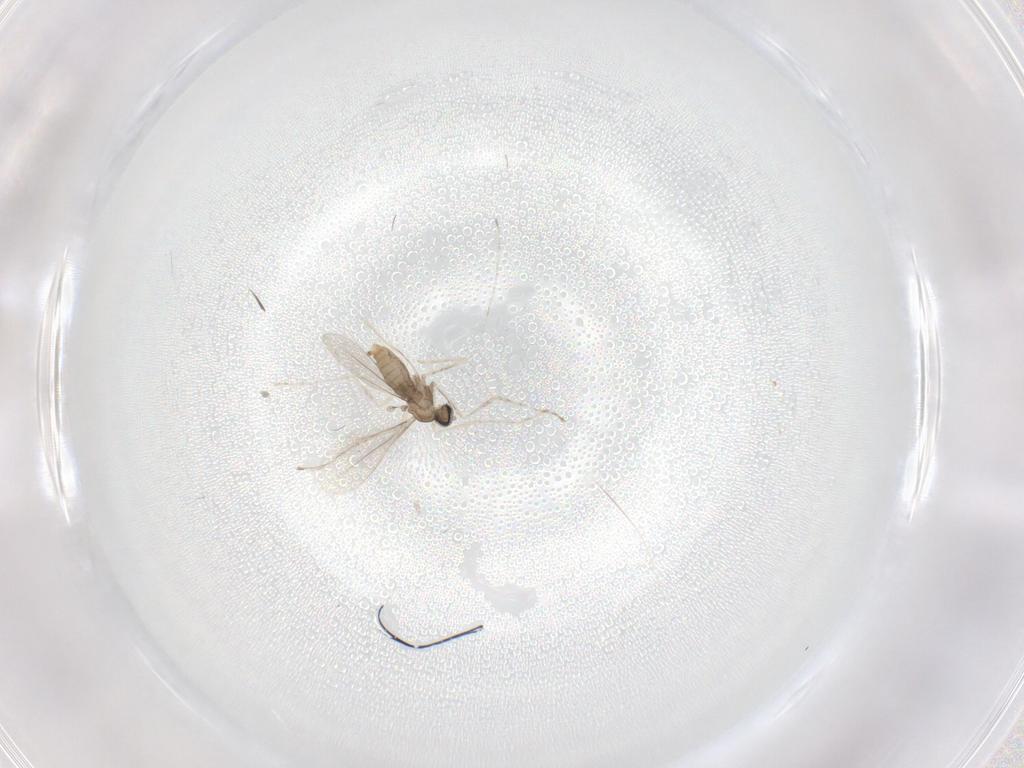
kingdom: Animalia
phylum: Arthropoda
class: Insecta
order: Diptera
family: Cecidomyiidae
